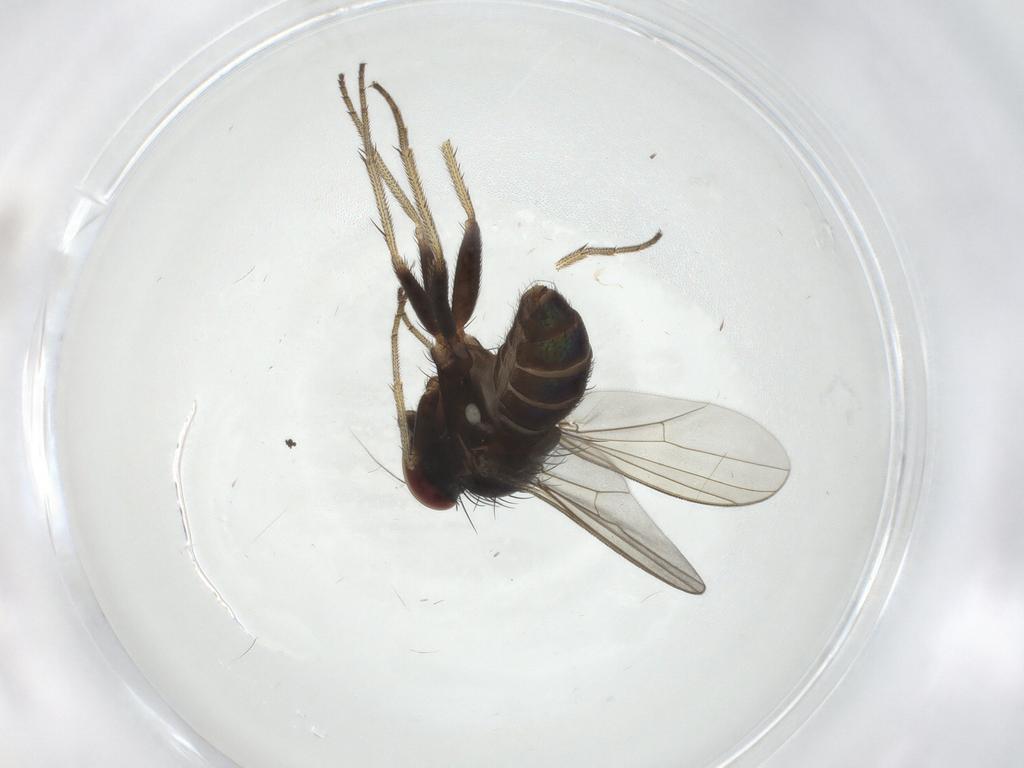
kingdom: Animalia
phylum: Arthropoda
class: Insecta
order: Diptera
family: Dolichopodidae
